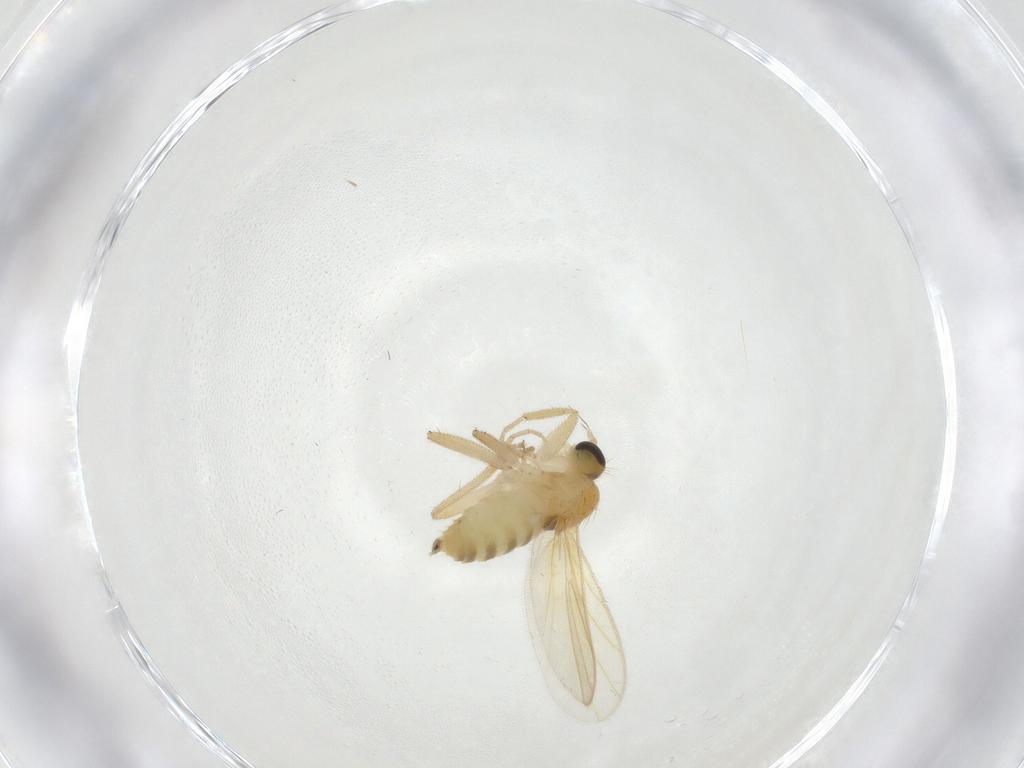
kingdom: Animalia
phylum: Arthropoda
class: Insecta
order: Diptera
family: Hybotidae
